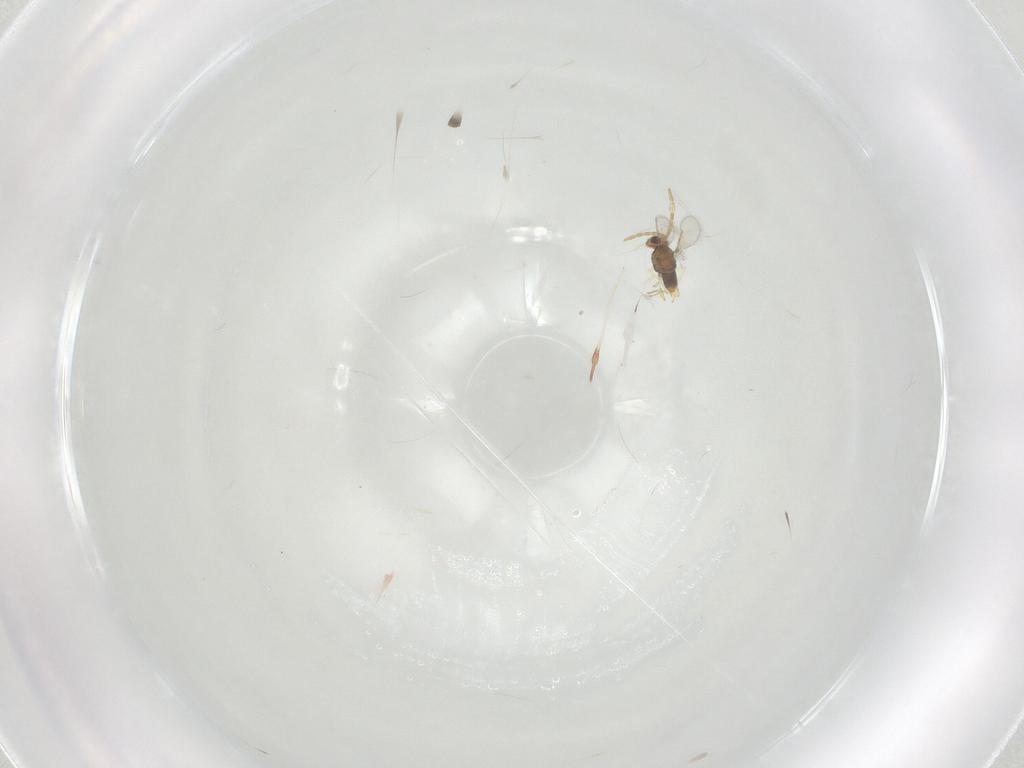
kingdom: Animalia
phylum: Arthropoda
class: Insecta
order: Hymenoptera
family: Aphelinidae
